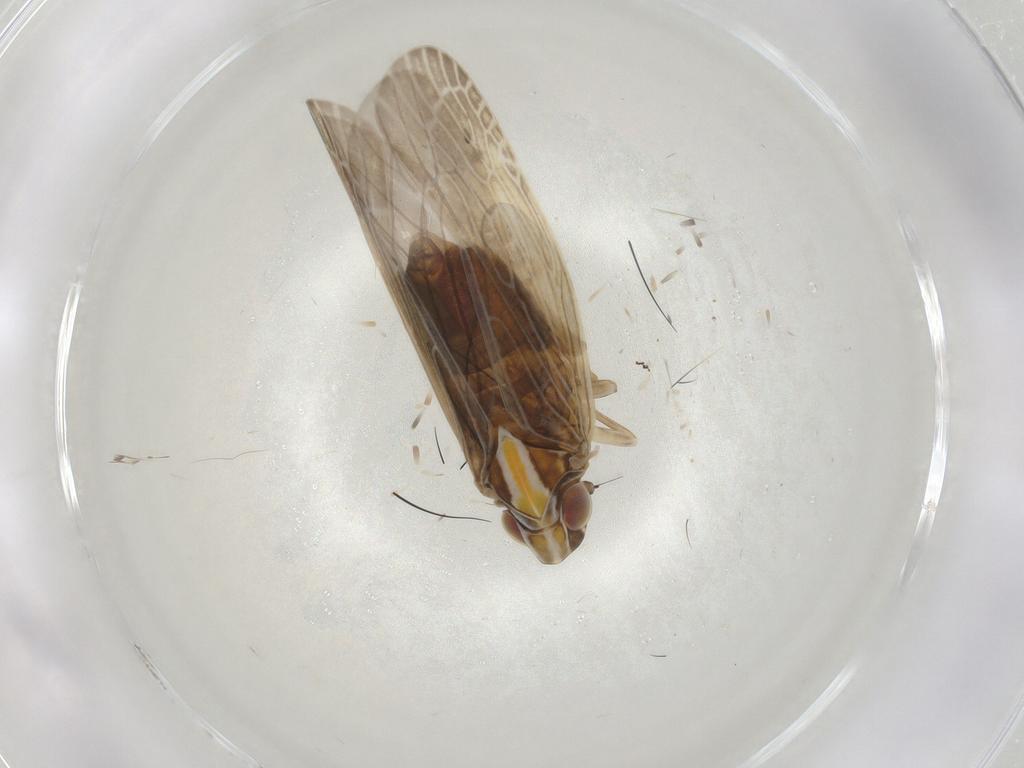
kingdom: Animalia
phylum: Arthropoda
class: Insecta
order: Hemiptera
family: Achilidae
